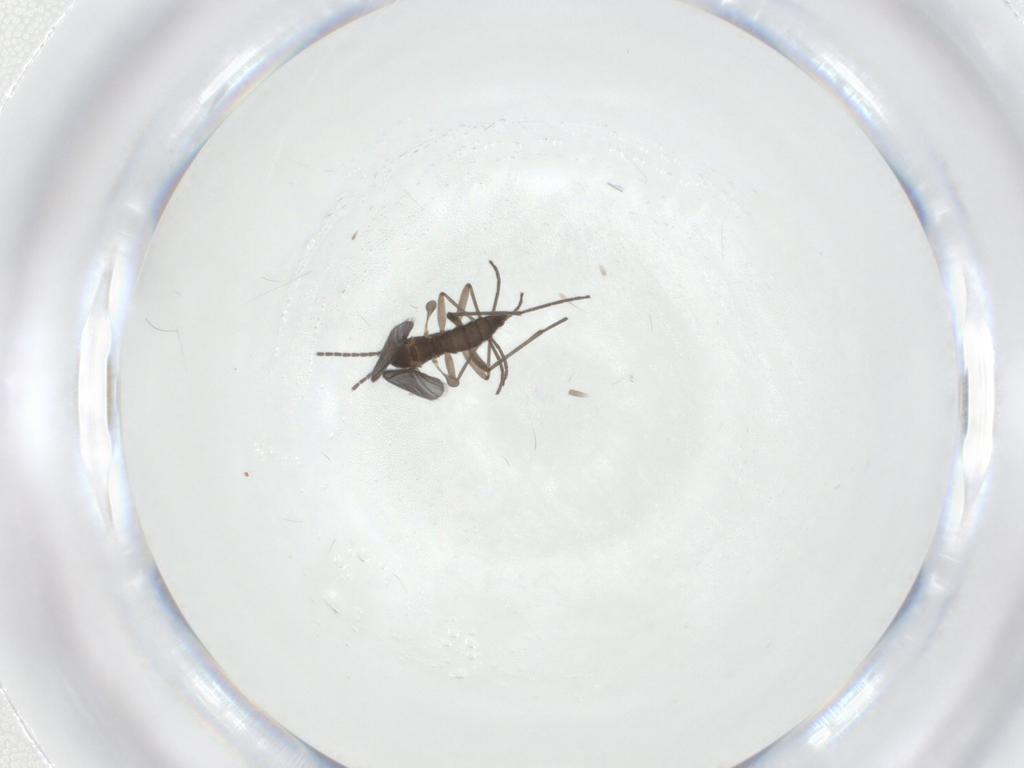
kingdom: Animalia
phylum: Arthropoda
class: Insecta
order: Diptera
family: Sciaridae
